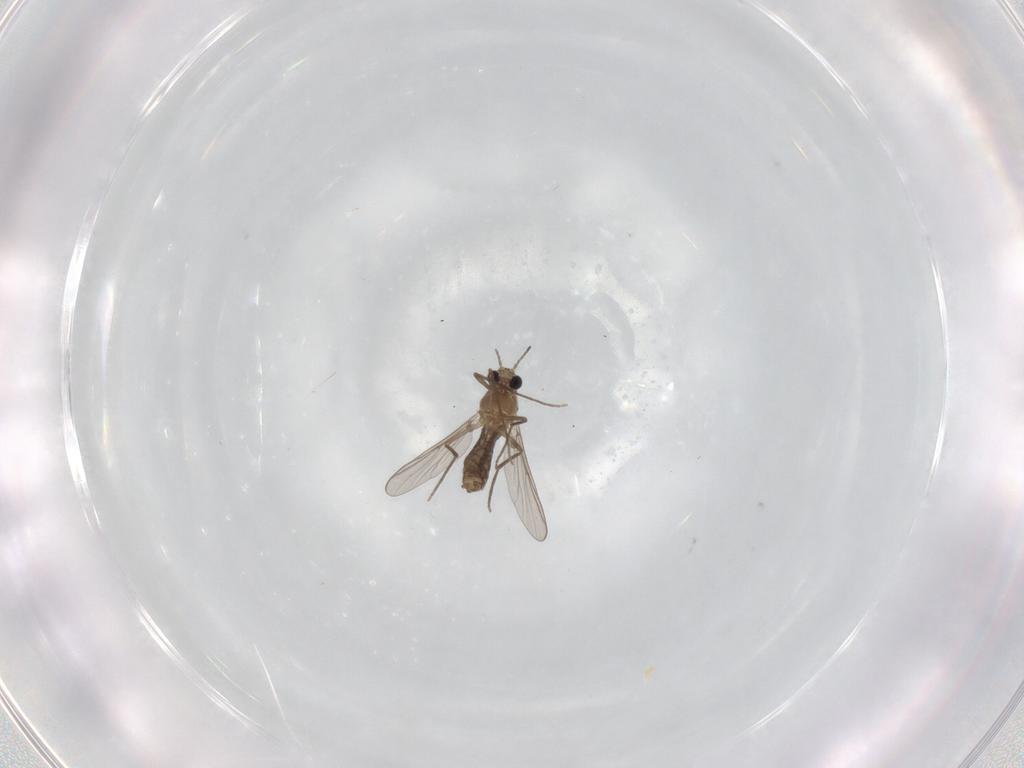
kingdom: Animalia
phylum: Arthropoda
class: Insecta
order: Diptera
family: Chironomidae
